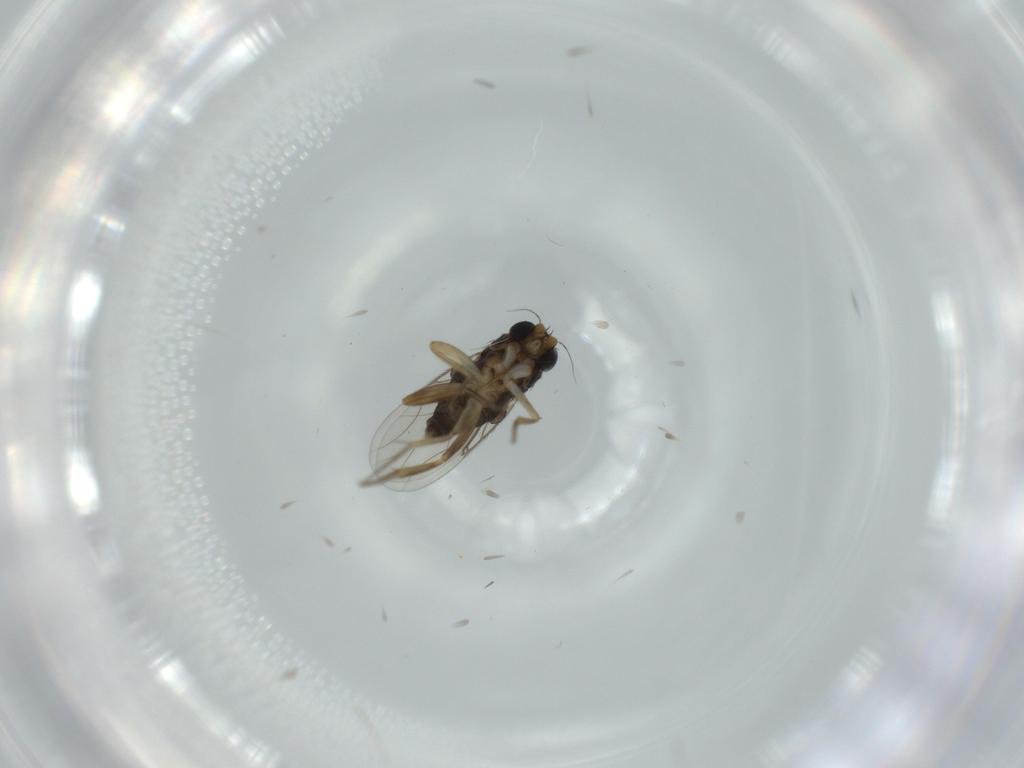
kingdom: Animalia
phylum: Arthropoda
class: Insecta
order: Diptera
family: Phoridae
